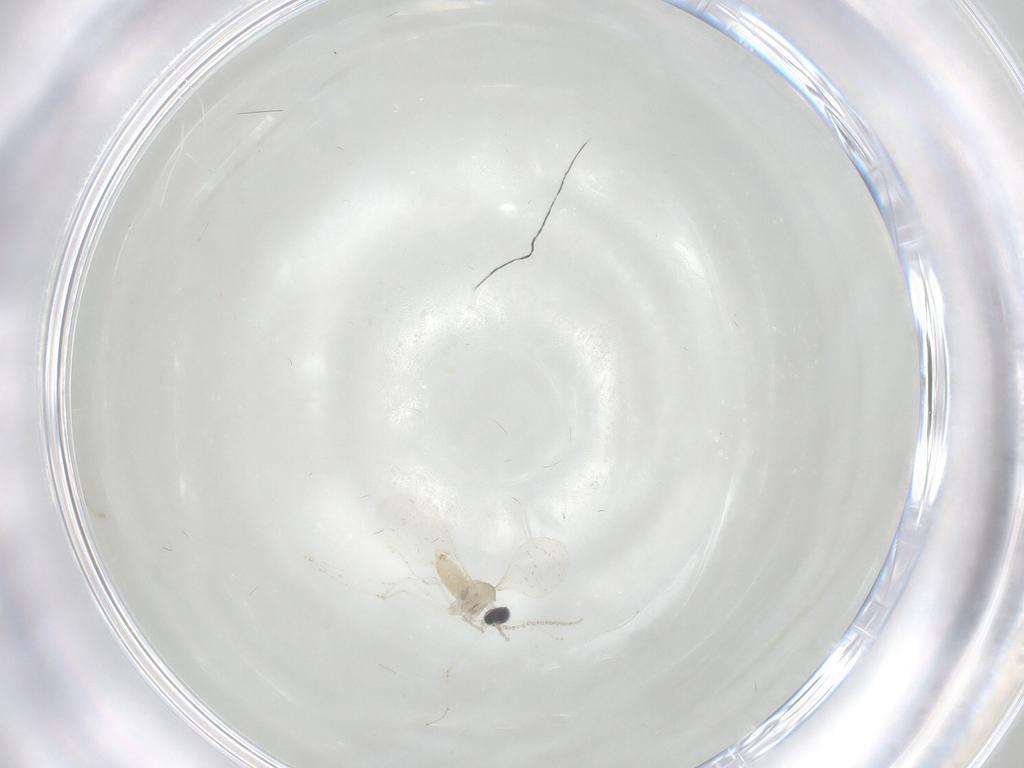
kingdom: Animalia
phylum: Arthropoda
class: Insecta
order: Diptera
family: Cecidomyiidae
